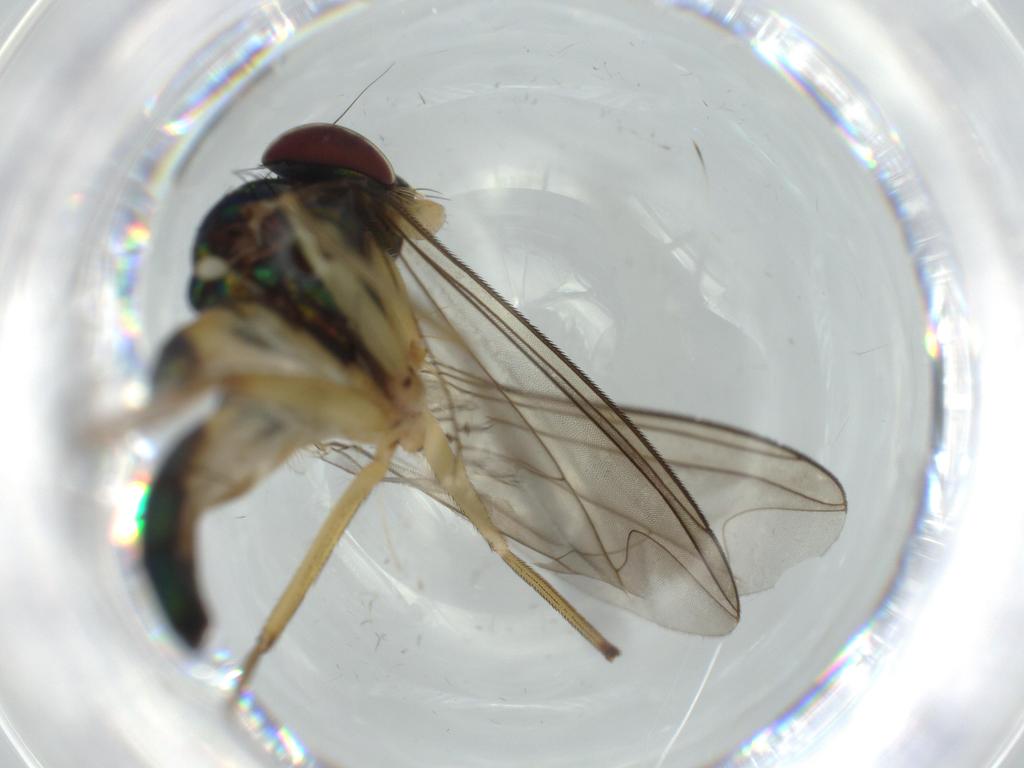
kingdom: Animalia
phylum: Arthropoda
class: Insecta
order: Diptera
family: Dolichopodidae
